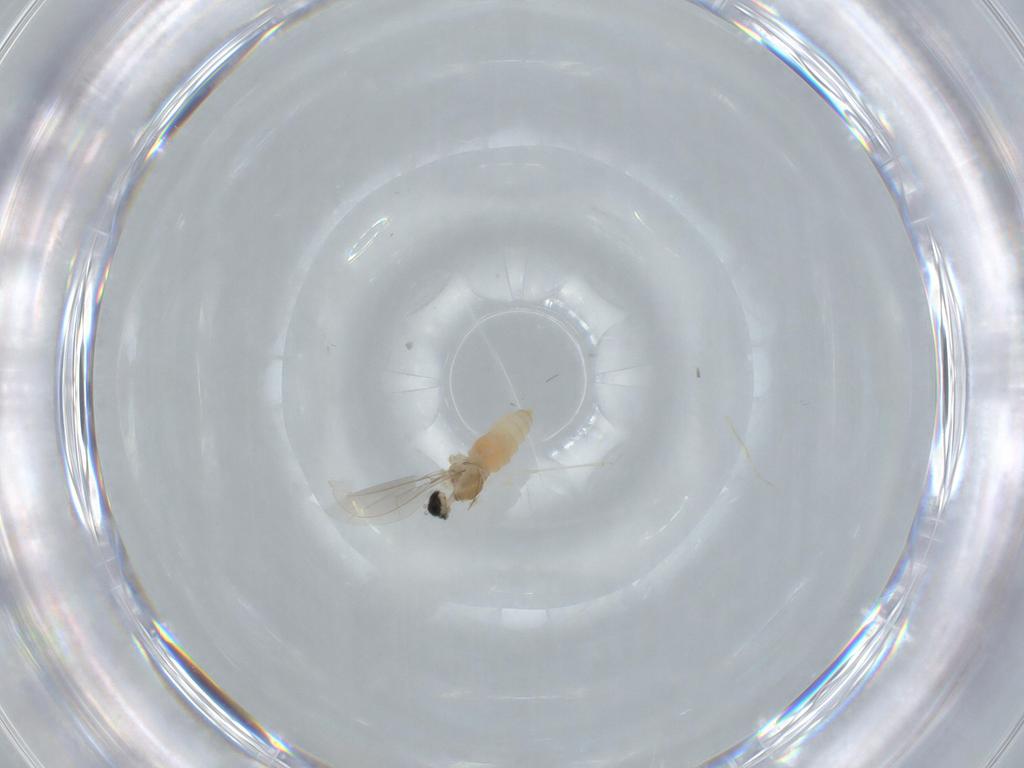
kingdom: Animalia
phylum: Arthropoda
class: Insecta
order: Diptera
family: Cecidomyiidae
